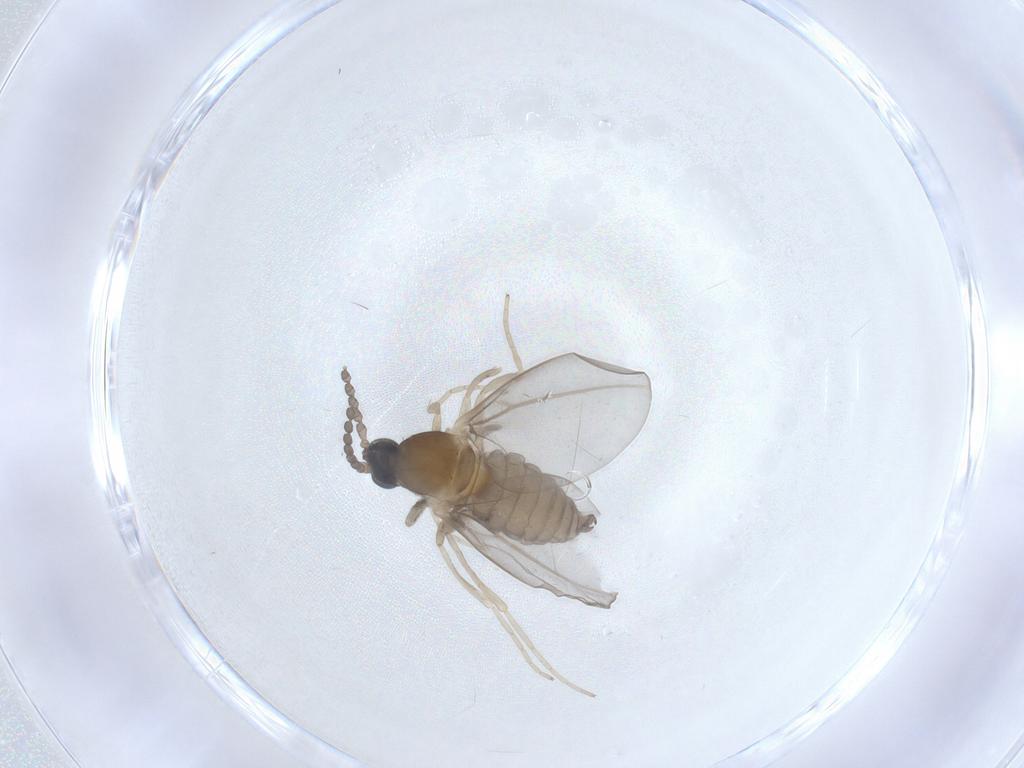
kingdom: Animalia
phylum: Arthropoda
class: Insecta
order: Diptera
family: Cecidomyiidae
